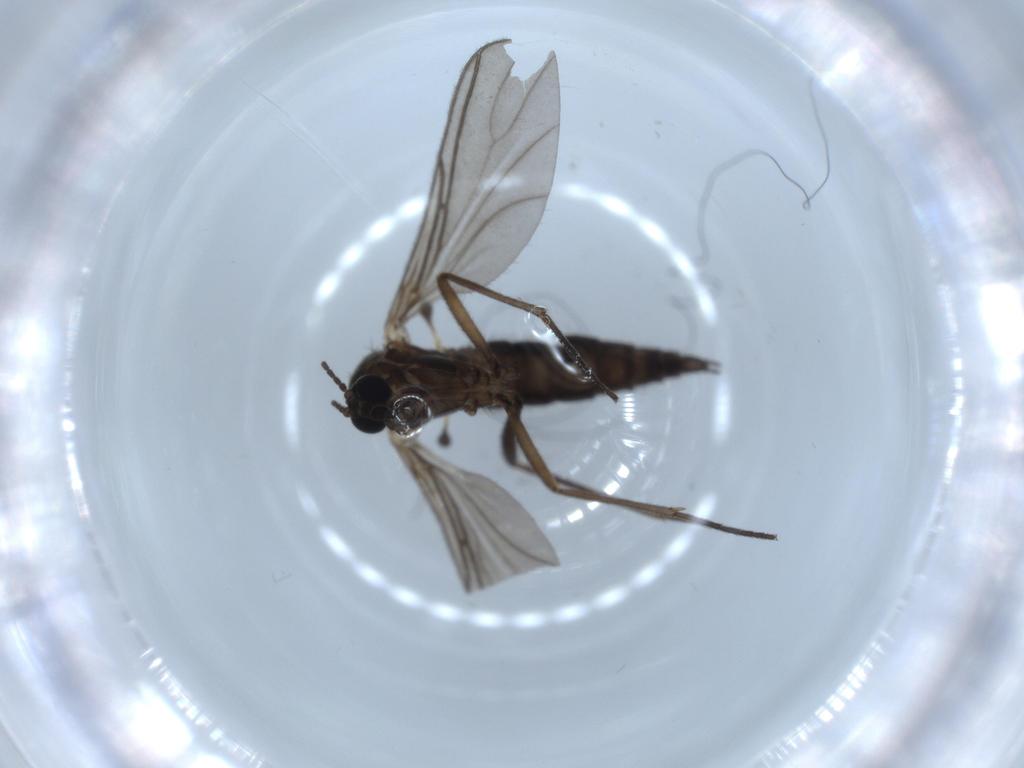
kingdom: Animalia
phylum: Arthropoda
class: Insecta
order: Diptera
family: Sciaridae
